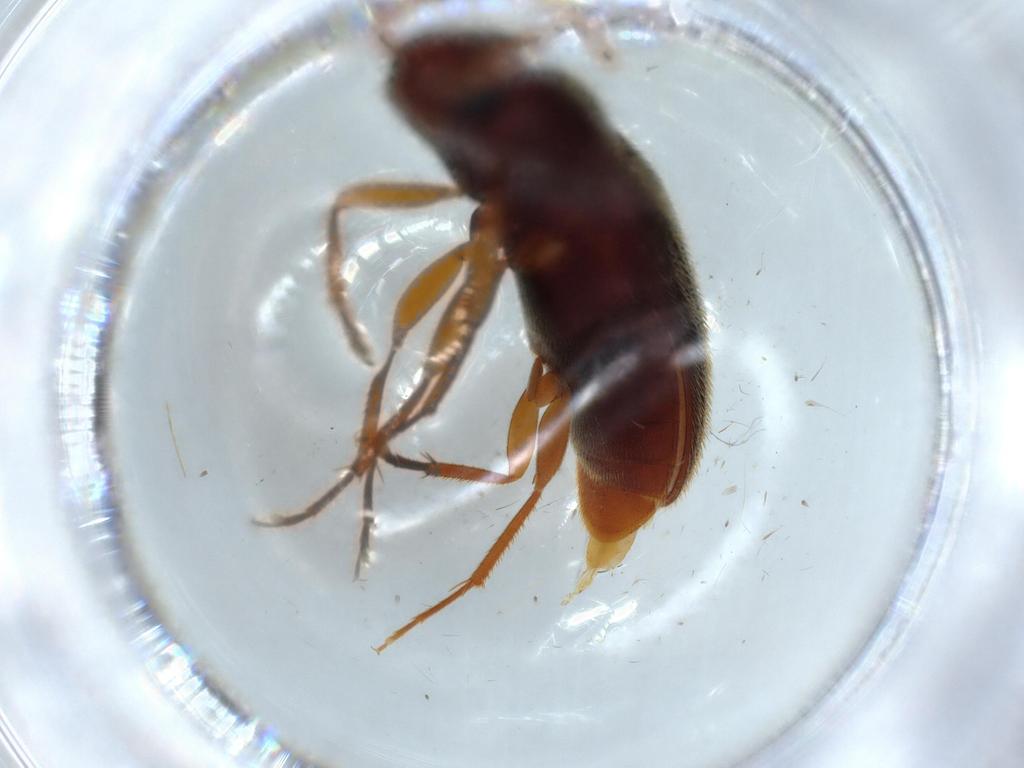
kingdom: Animalia
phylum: Arthropoda
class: Insecta
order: Coleoptera
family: Elateridae
